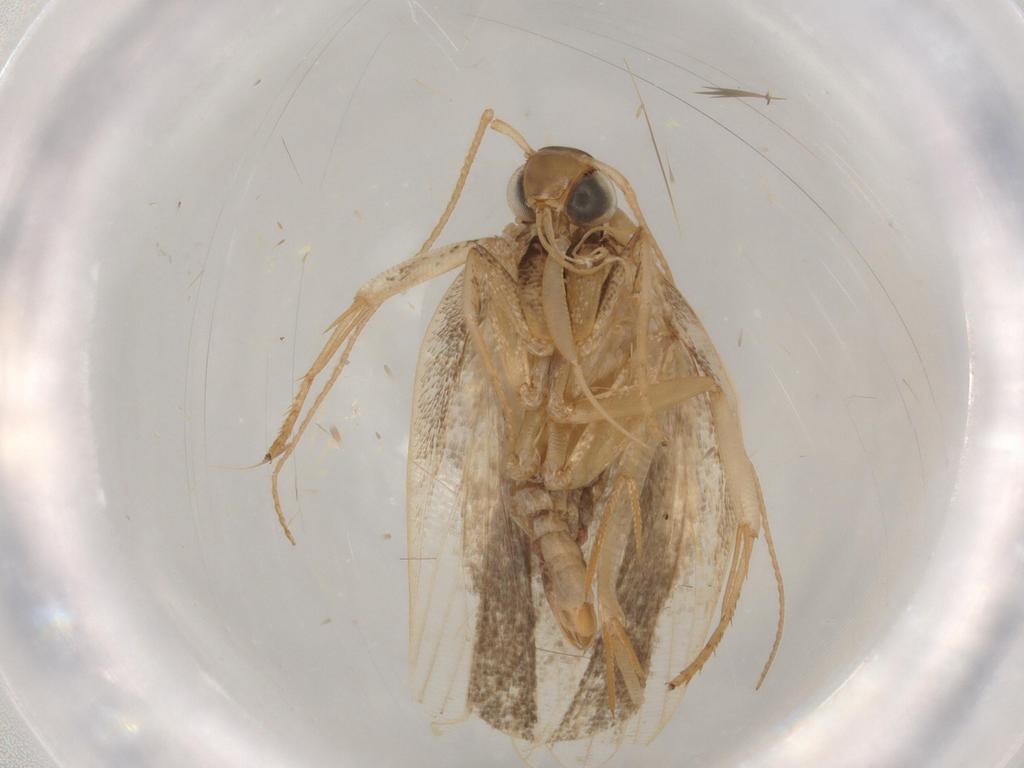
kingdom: Animalia
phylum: Arthropoda
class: Insecta
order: Lepidoptera
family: Gelechiidae
